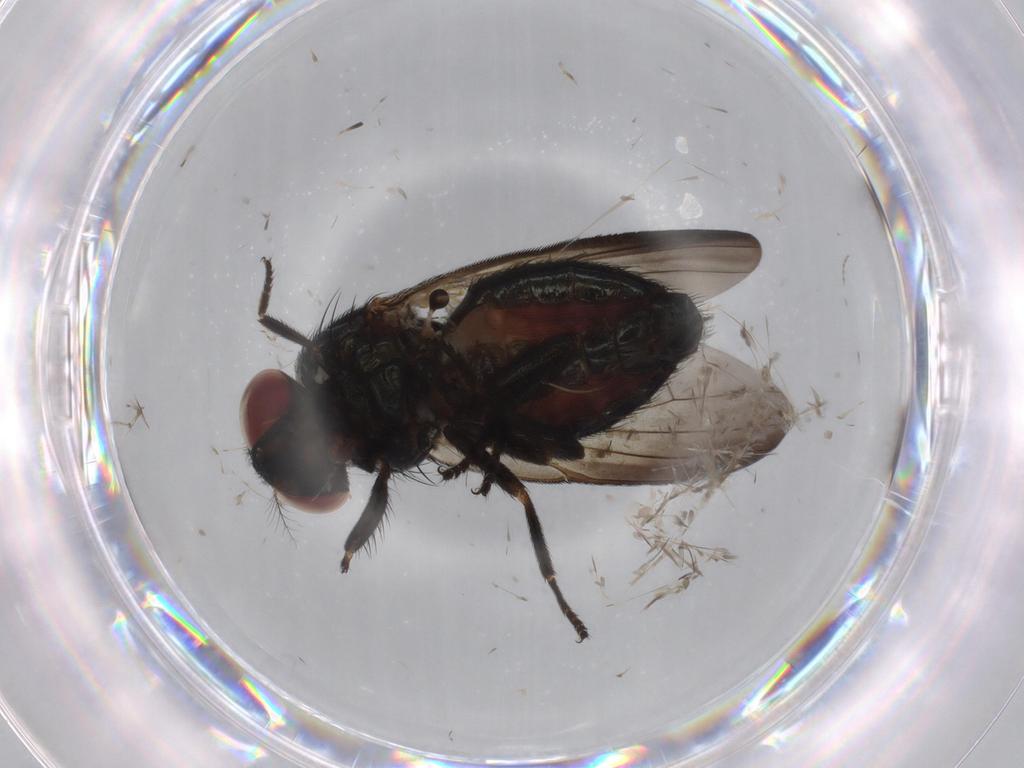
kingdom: Animalia
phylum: Arthropoda
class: Insecta
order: Diptera
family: Lonchaeidae
